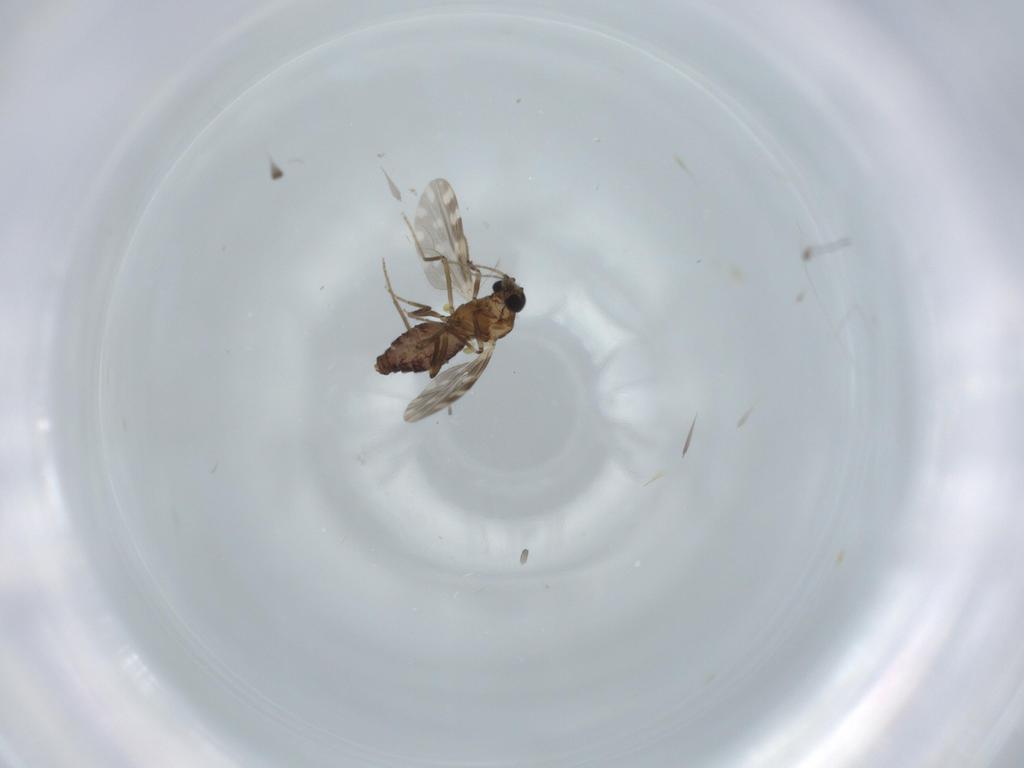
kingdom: Animalia
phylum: Arthropoda
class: Insecta
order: Diptera
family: Ceratopogonidae
